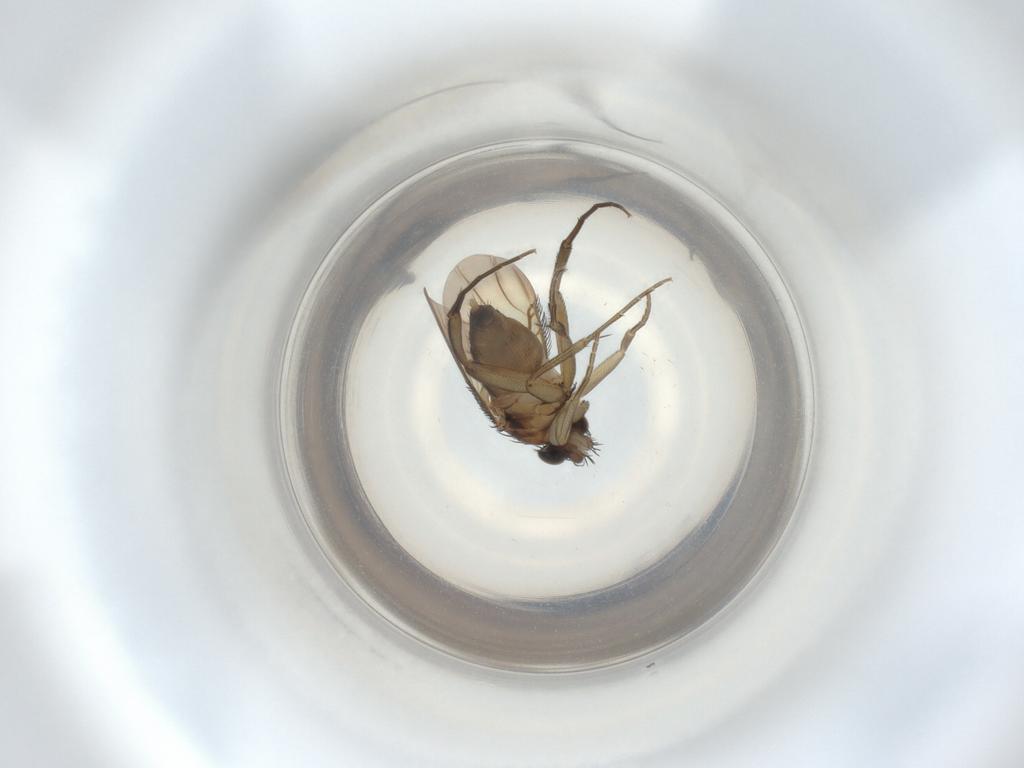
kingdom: Animalia
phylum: Arthropoda
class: Insecta
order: Diptera
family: Phoridae
